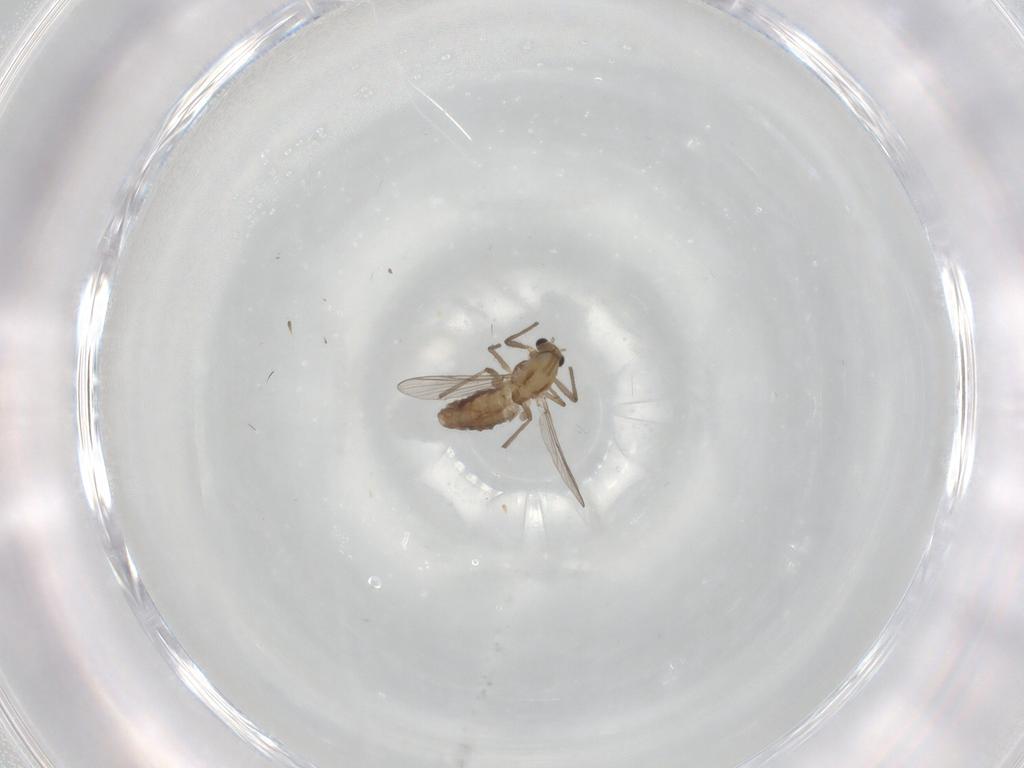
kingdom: Animalia
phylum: Arthropoda
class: Insecta
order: Diptera
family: Chironomidae
